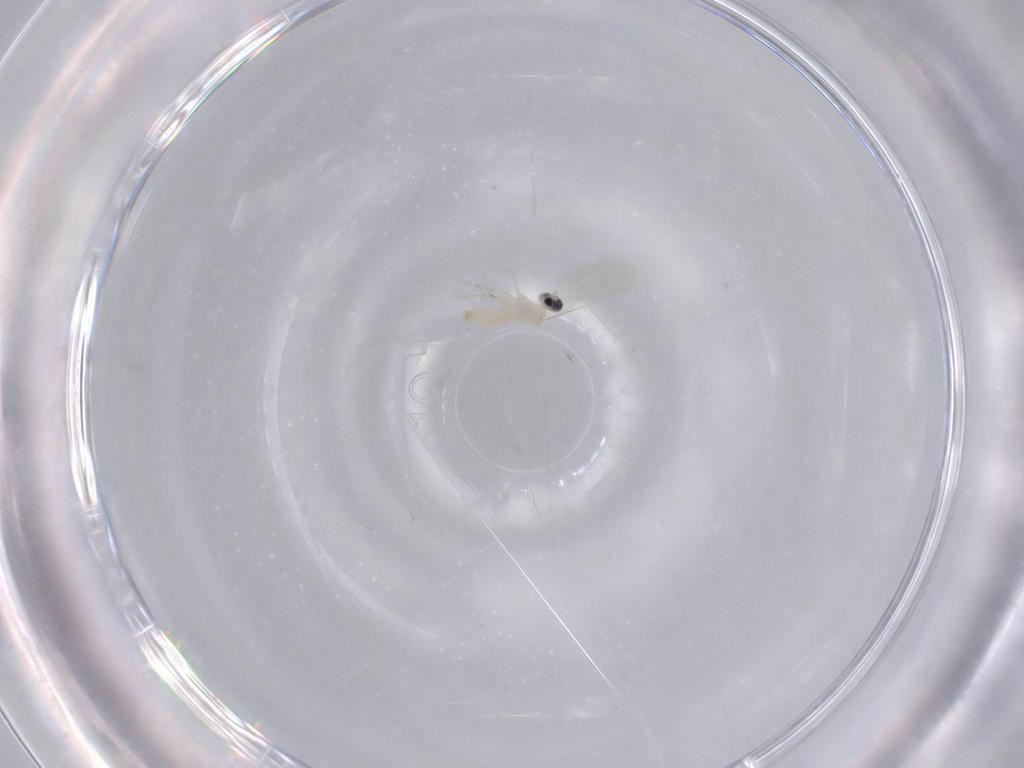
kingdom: Animalia
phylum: Arthropoda
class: Insecta
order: Diptera
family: Cecidomyiidae
